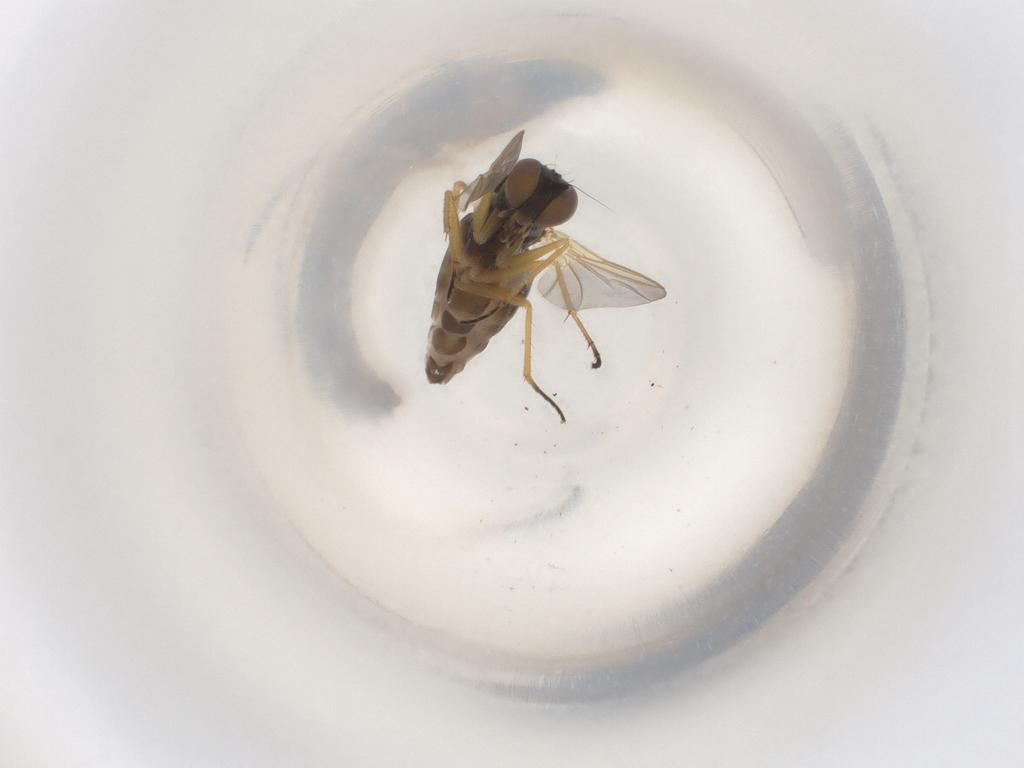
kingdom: Animalia
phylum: Arthropoda
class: Insecta
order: Diptera
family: Dolichopodidae
